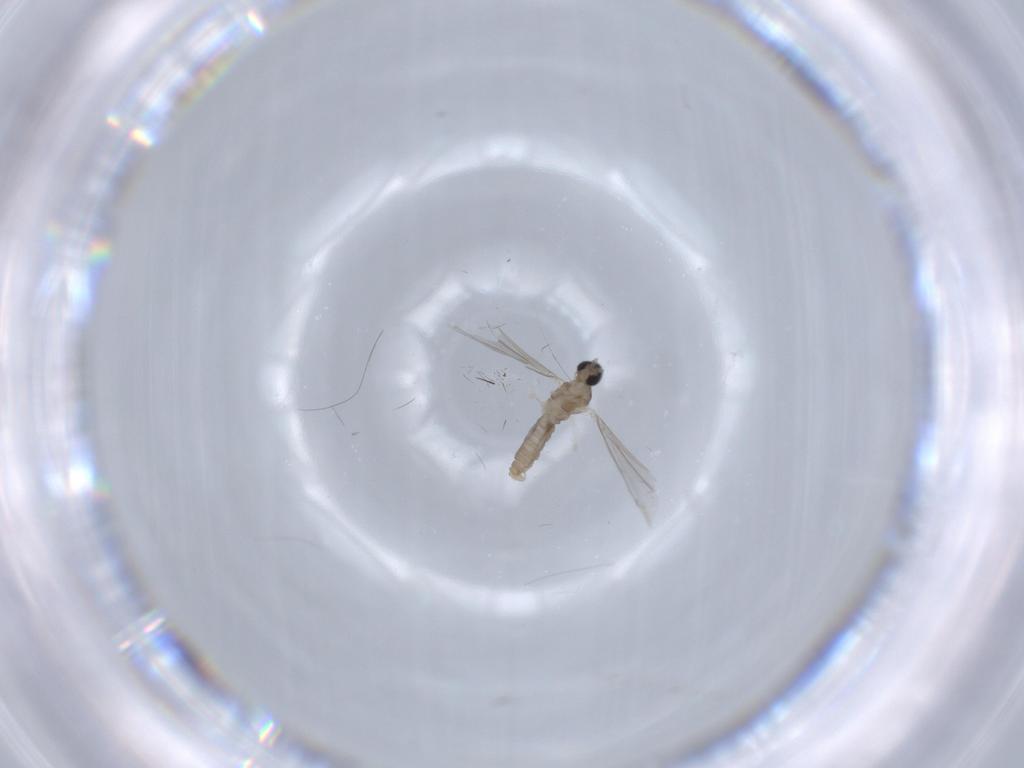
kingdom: Animalia
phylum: Arthropoda
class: Insecta
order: Diptera
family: Cecidomyiidae
